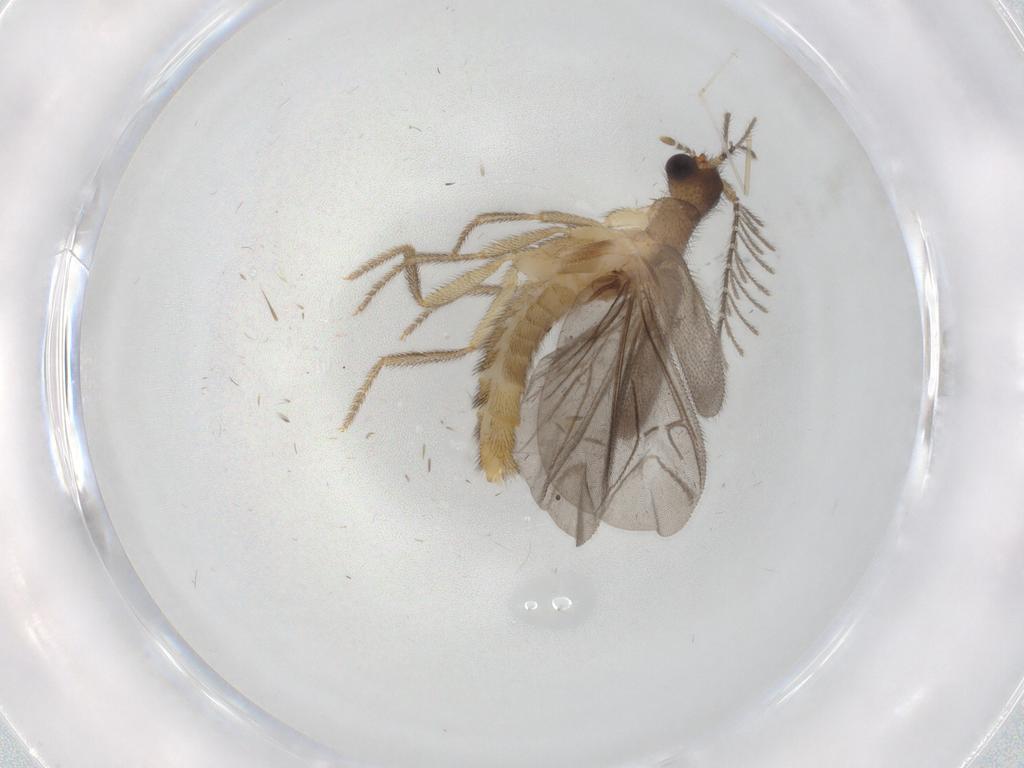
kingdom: Animalia
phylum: Arthropoda
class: Insecta
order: Coleoptera
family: Phengodidae
